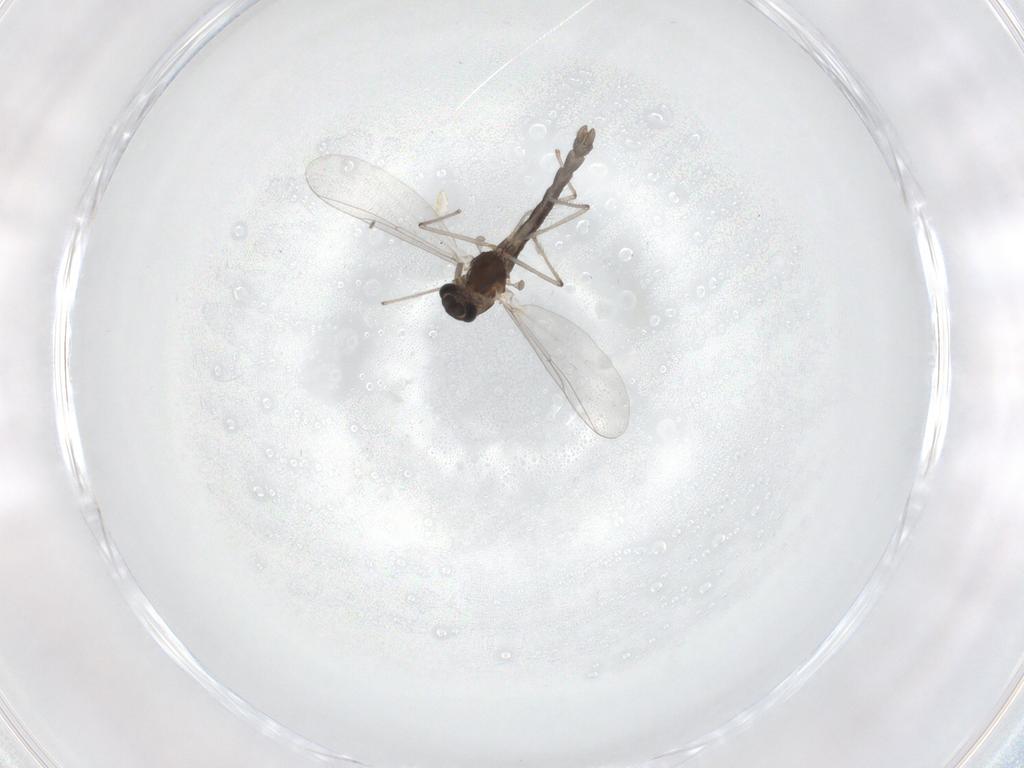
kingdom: Animalia
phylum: Arthropoda
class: Insecta
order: Diptera
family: Chironomidae
